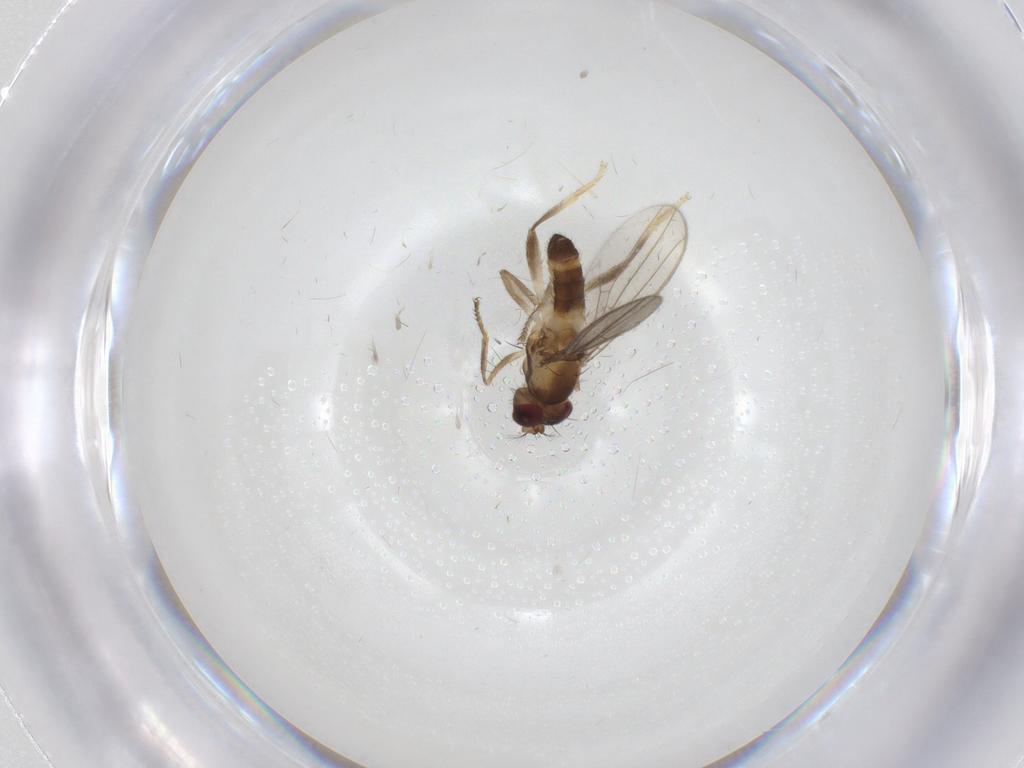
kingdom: Animalia
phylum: Arthropoda
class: Insecta
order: Diptera
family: Periscelididae
